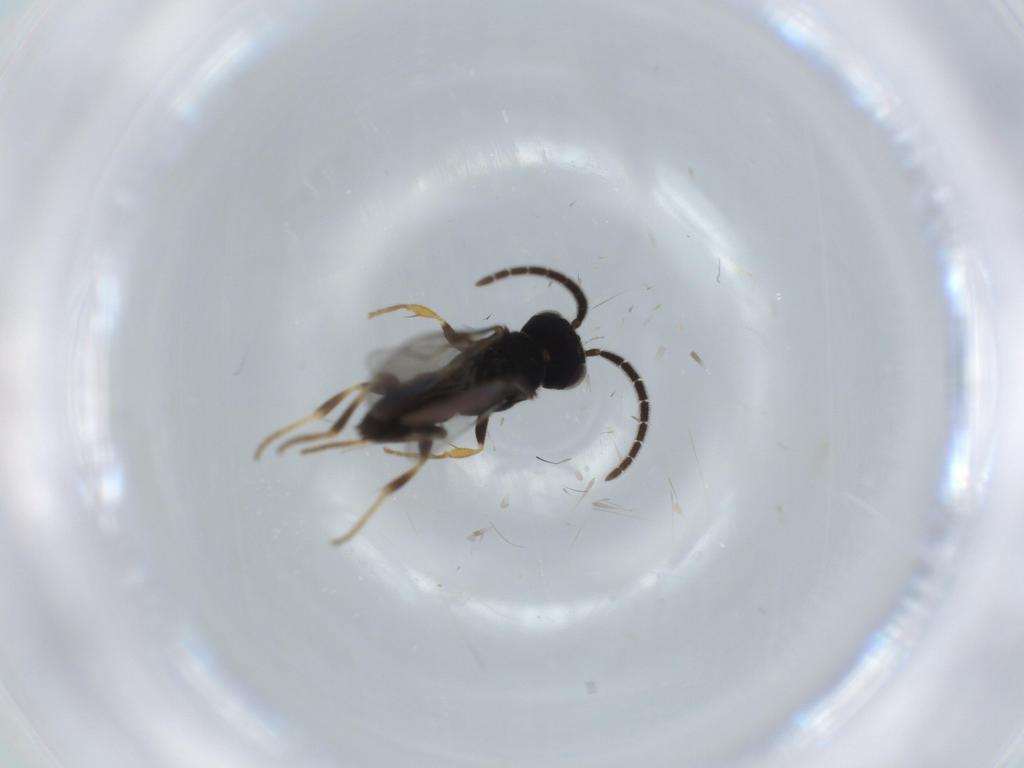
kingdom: Animalia
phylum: Arthropoda
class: Insecta
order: Hymenoptera
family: Dryinidae
